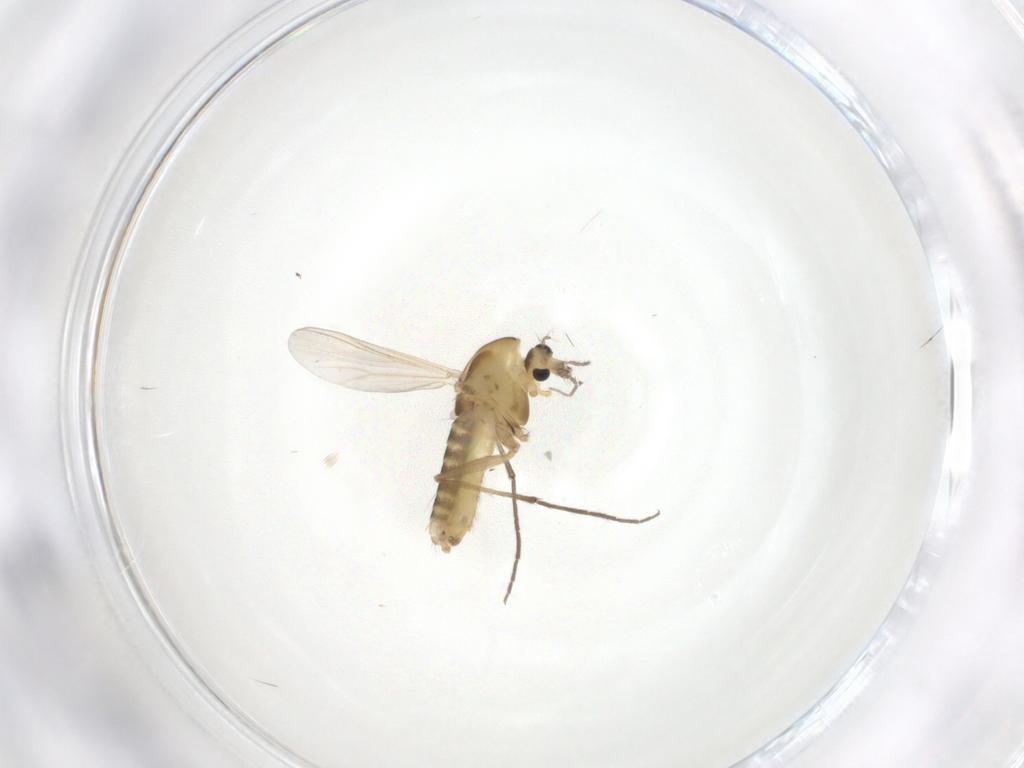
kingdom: Animalia
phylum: Arthropoda
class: Insecta
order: Diptera
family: Chironomidae
